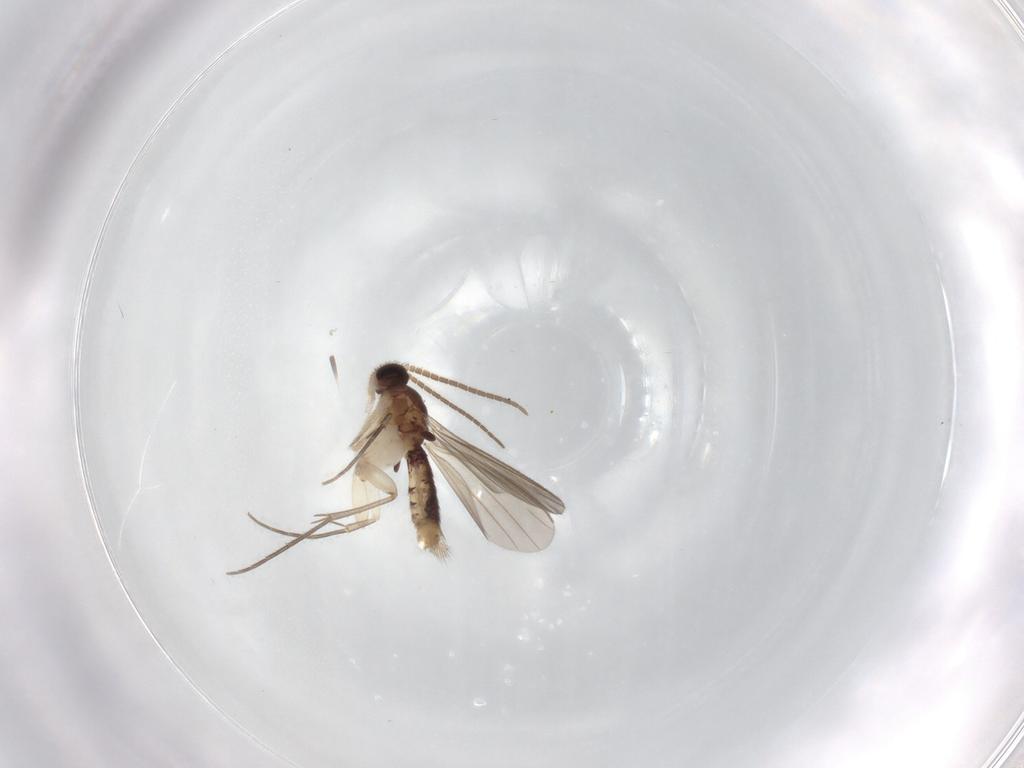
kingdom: Animalia
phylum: Arthropoda
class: Insecta
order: Diptera
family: Mycetophilidae
